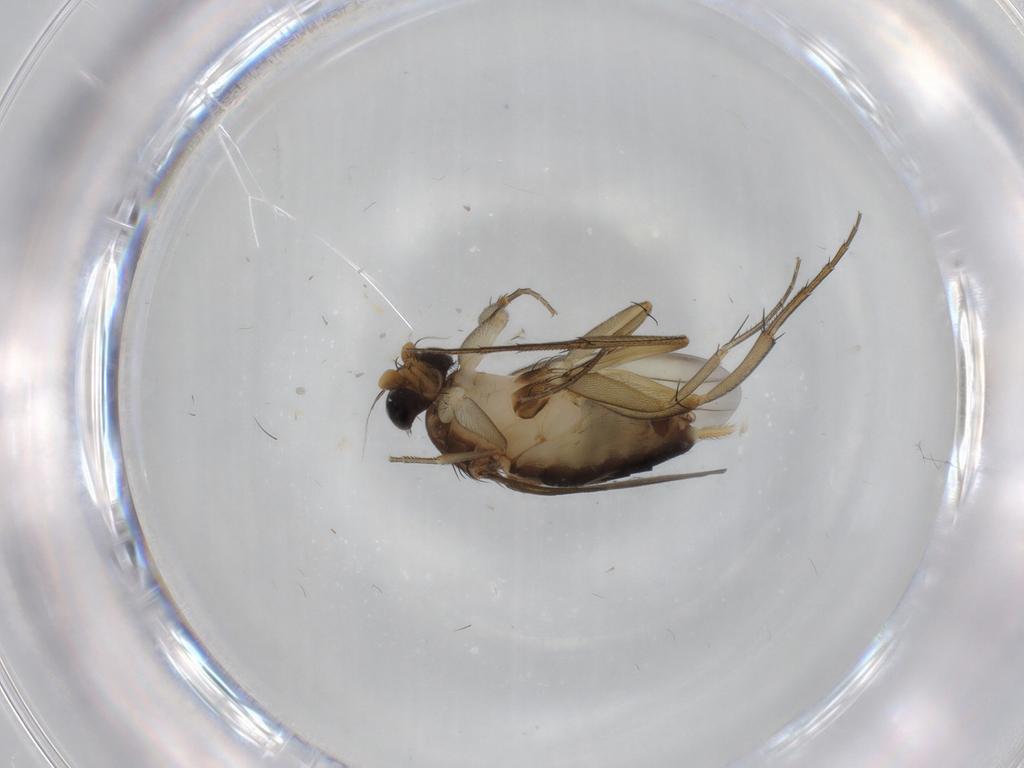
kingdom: Animalia
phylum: Arthropoda
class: Insecta
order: Diptera
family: Phoridae
